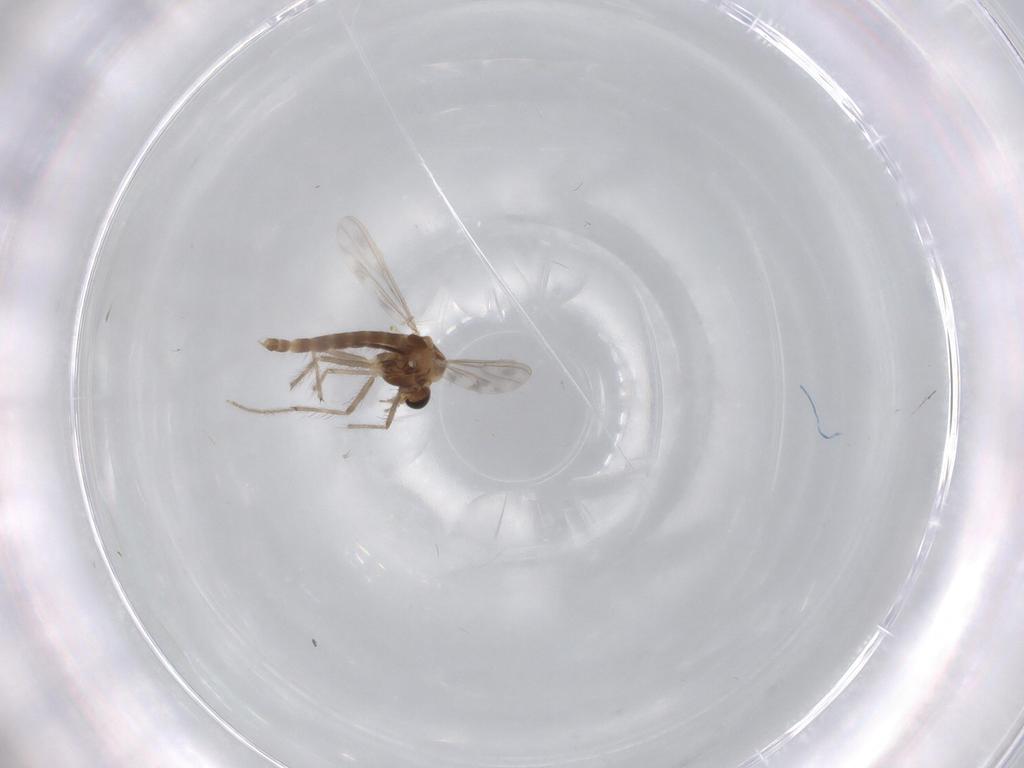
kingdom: Animalia
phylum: Arthropoda
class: Insecta
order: Diptera
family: Chironomidae
